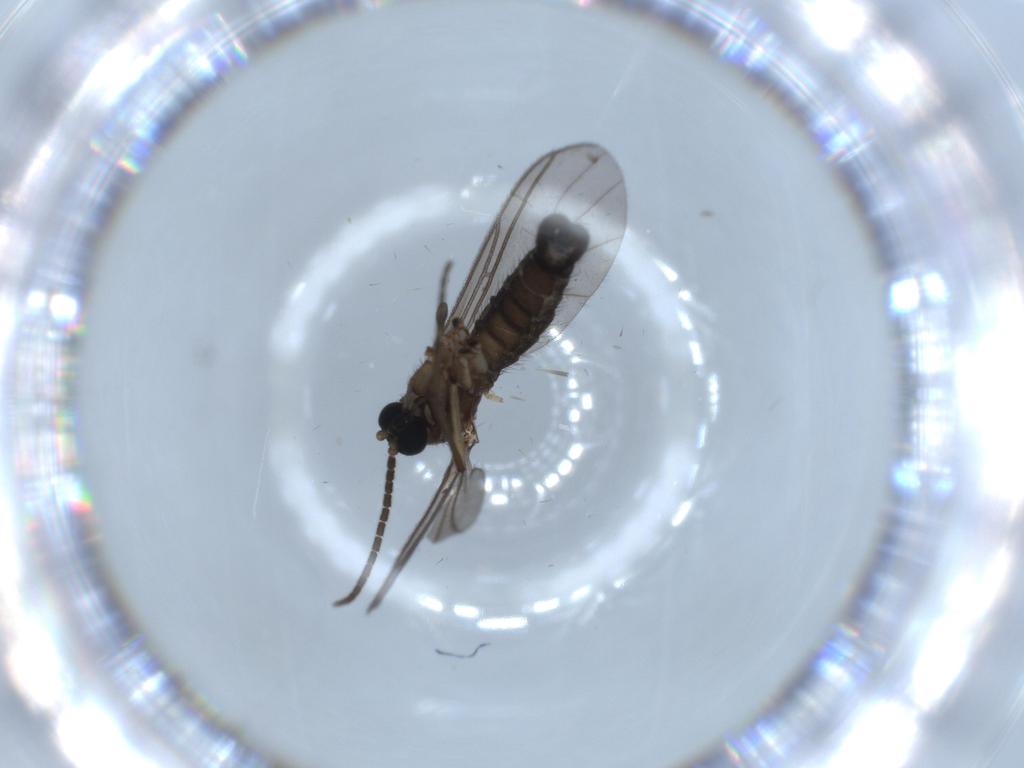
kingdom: Animalia
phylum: Arthropoda
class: Insecta
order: Diptera
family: Sciaridae
